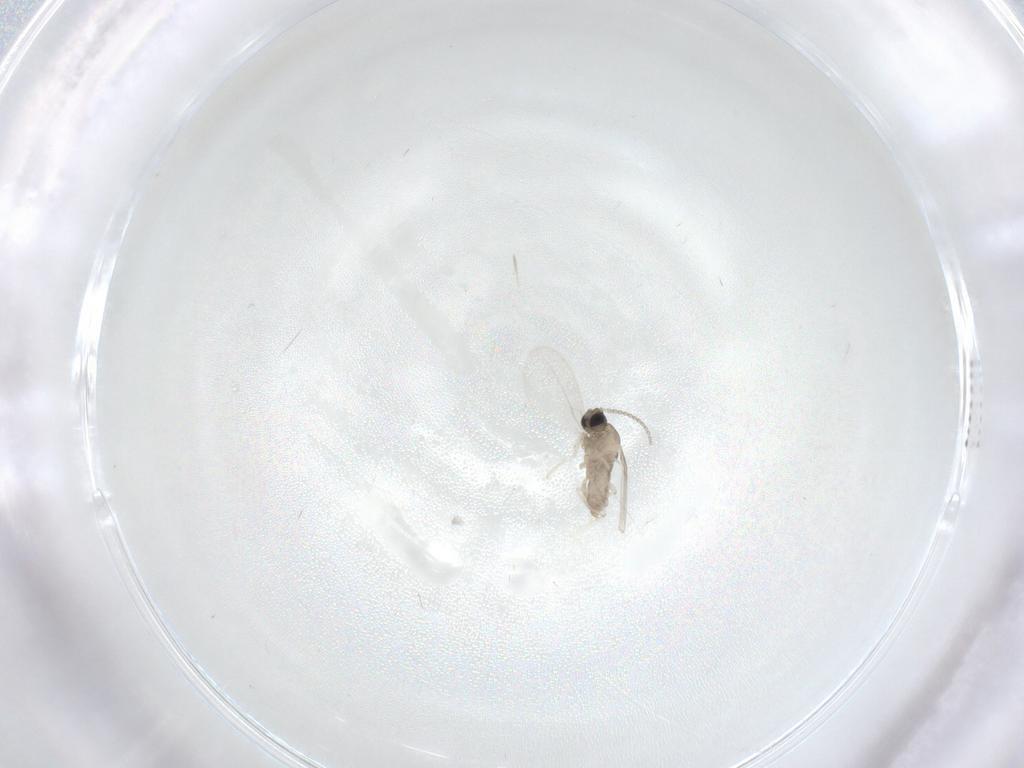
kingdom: Animalia
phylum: Arthropoda
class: Insecta
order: Diptera
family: Cecidomyiidae
